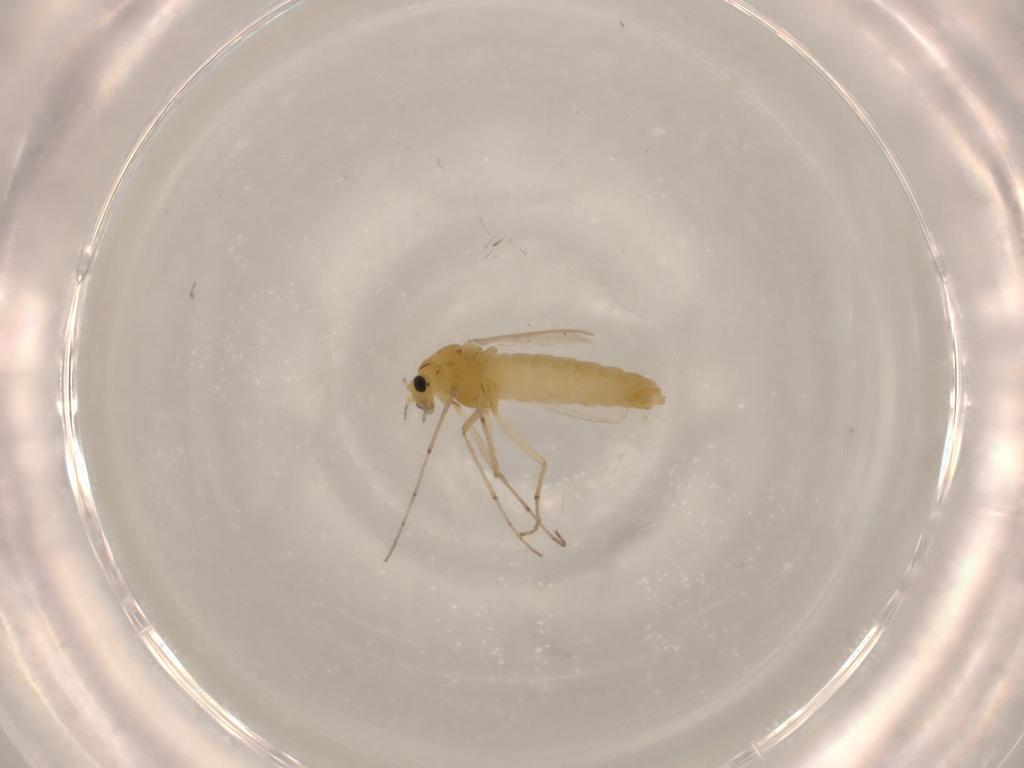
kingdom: Animalia
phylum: Arthropoda
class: Insecta
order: Diptera
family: Chironomidae
